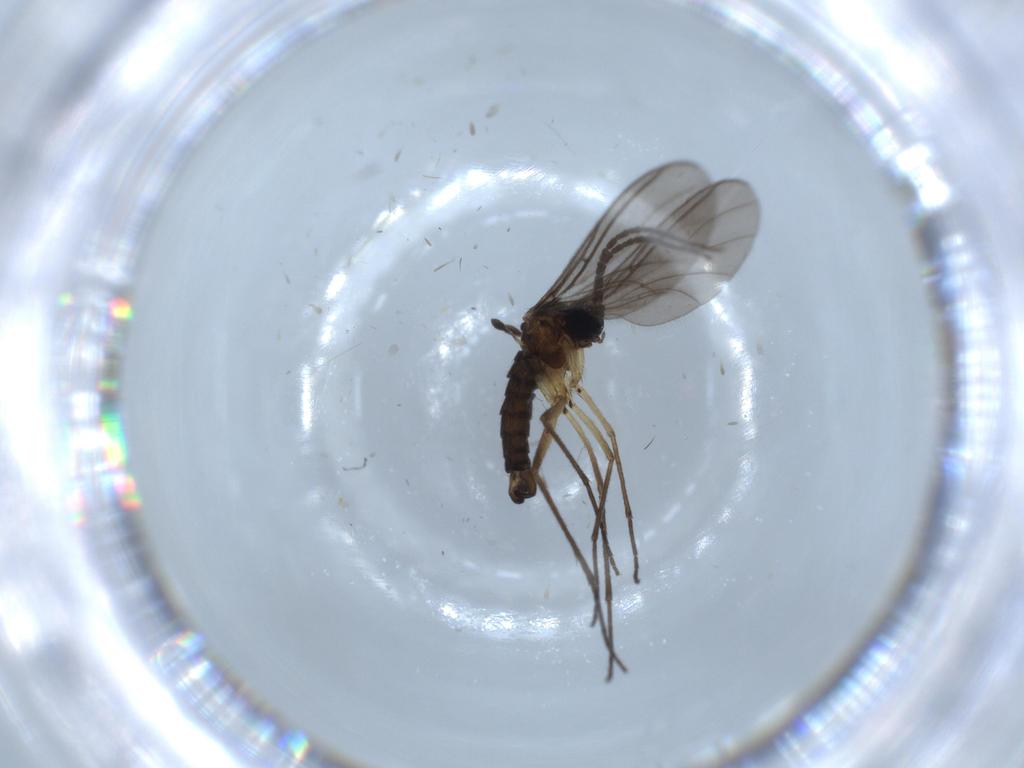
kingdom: Animalia
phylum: Arthropoda
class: Insecta
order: Diptera
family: Sciaridae
